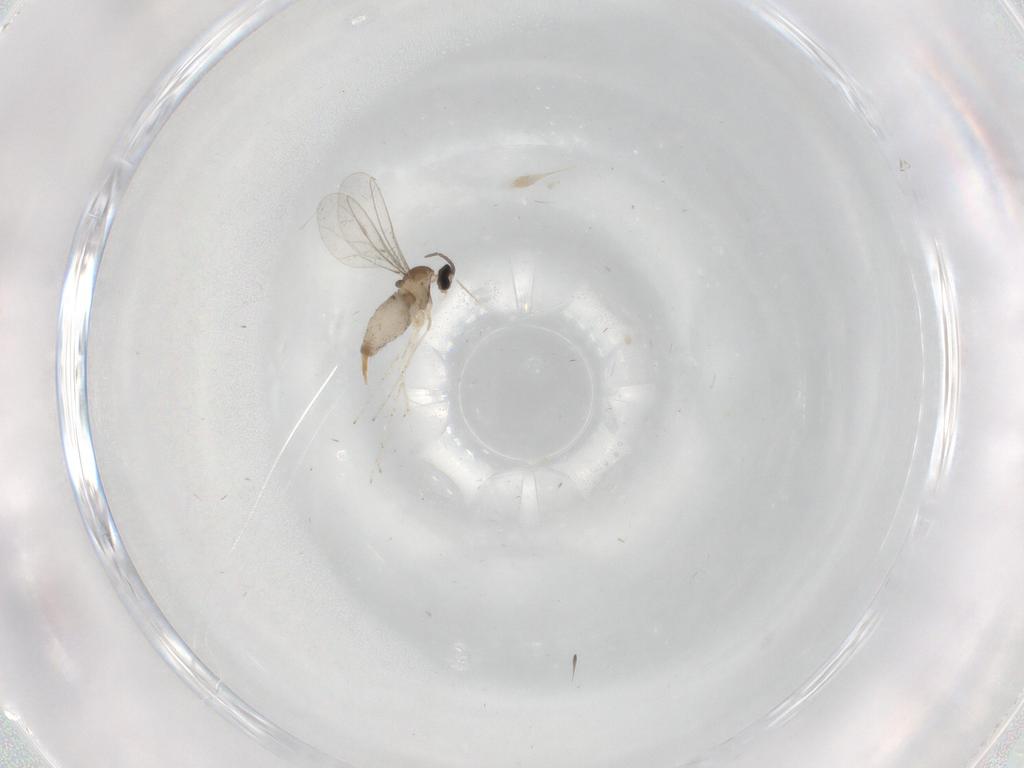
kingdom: Animalia
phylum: Arthropoda
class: Insecta
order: Diptera
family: Cecidomyiidae
